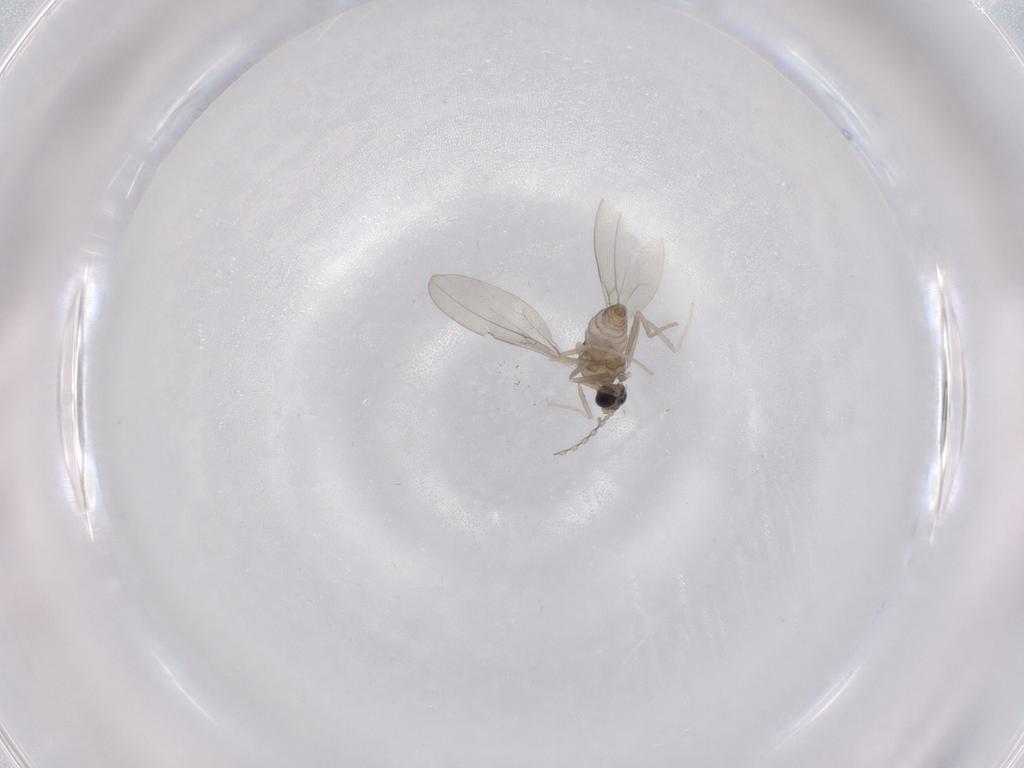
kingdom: Animalia
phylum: Arthropoda
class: Insecta
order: Diptera
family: Cecidomyiidae
